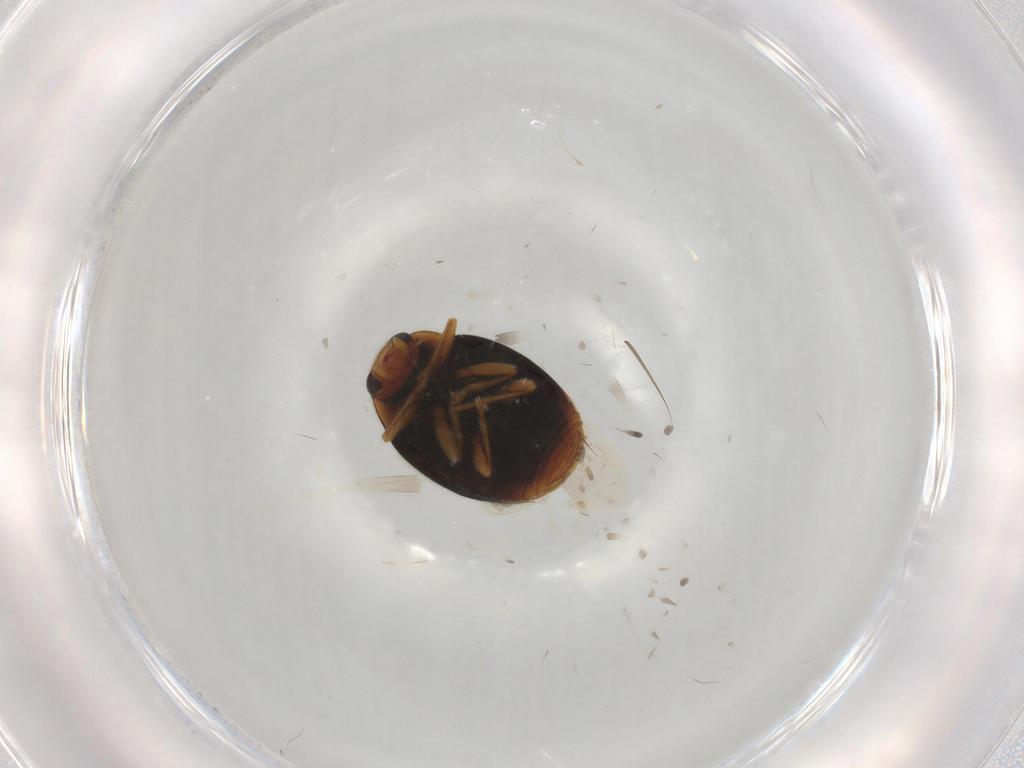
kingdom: Animalia
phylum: Arthropoda
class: Insecta
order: Coleoptera
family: Coccinellidae
